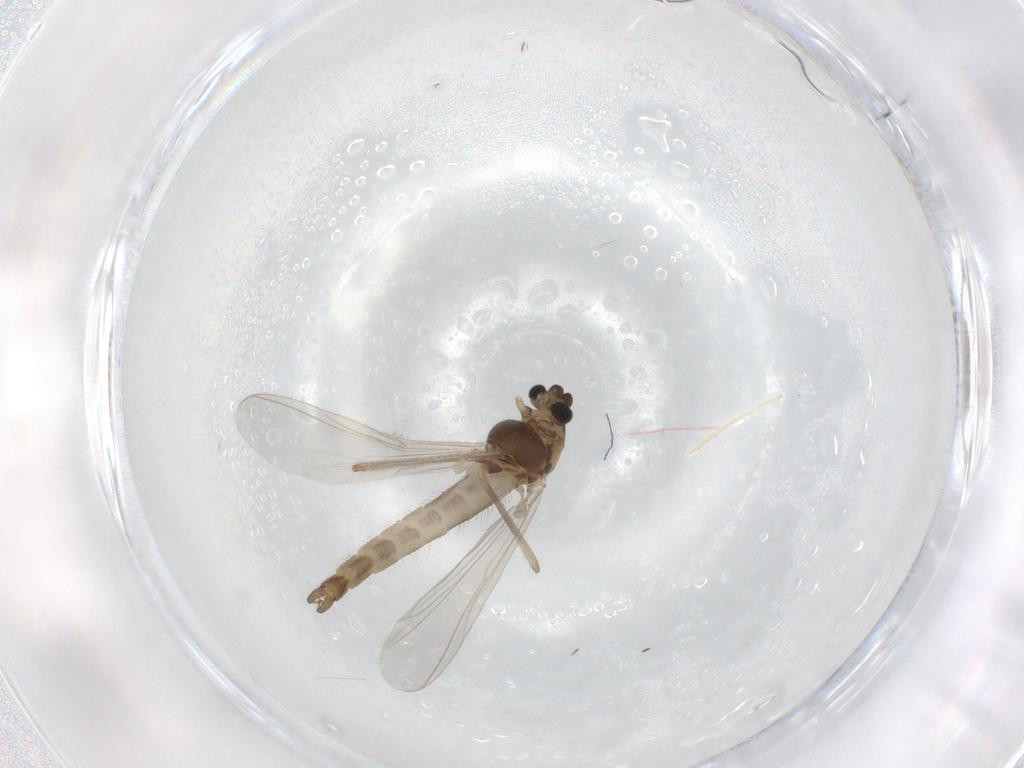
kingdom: Animalia
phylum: Arthropoda
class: Insecta
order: Diptera
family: Chironomidae
